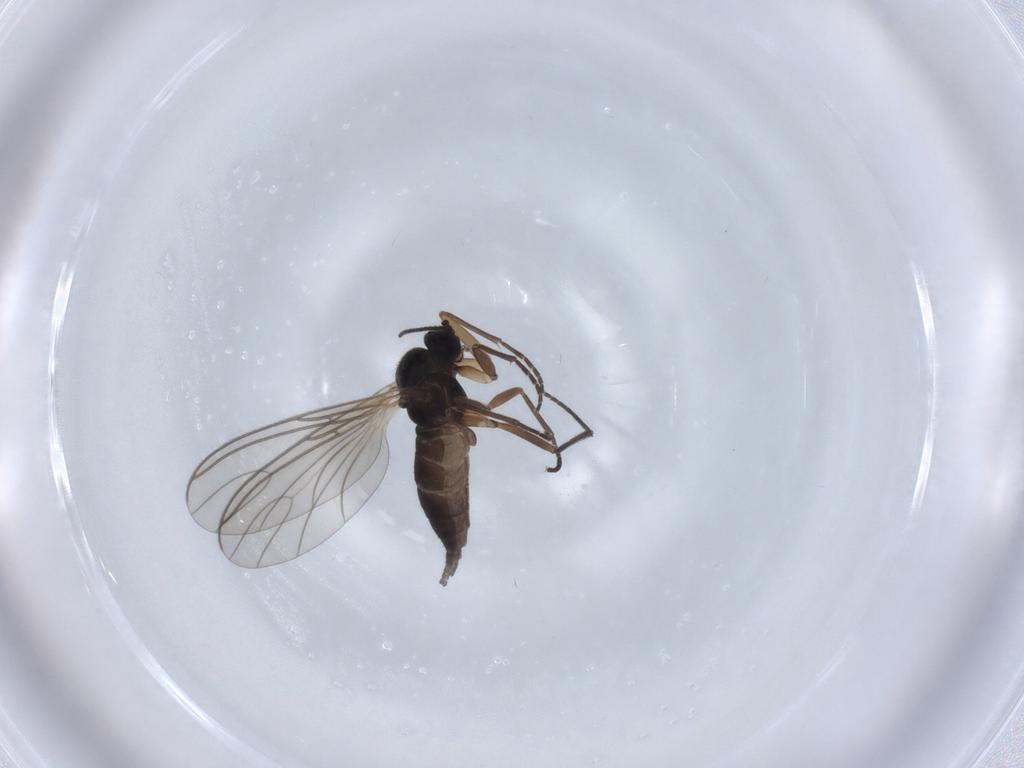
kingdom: Animalia
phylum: Arthropoda
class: Insecta
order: Diptera
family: Sciaridae
